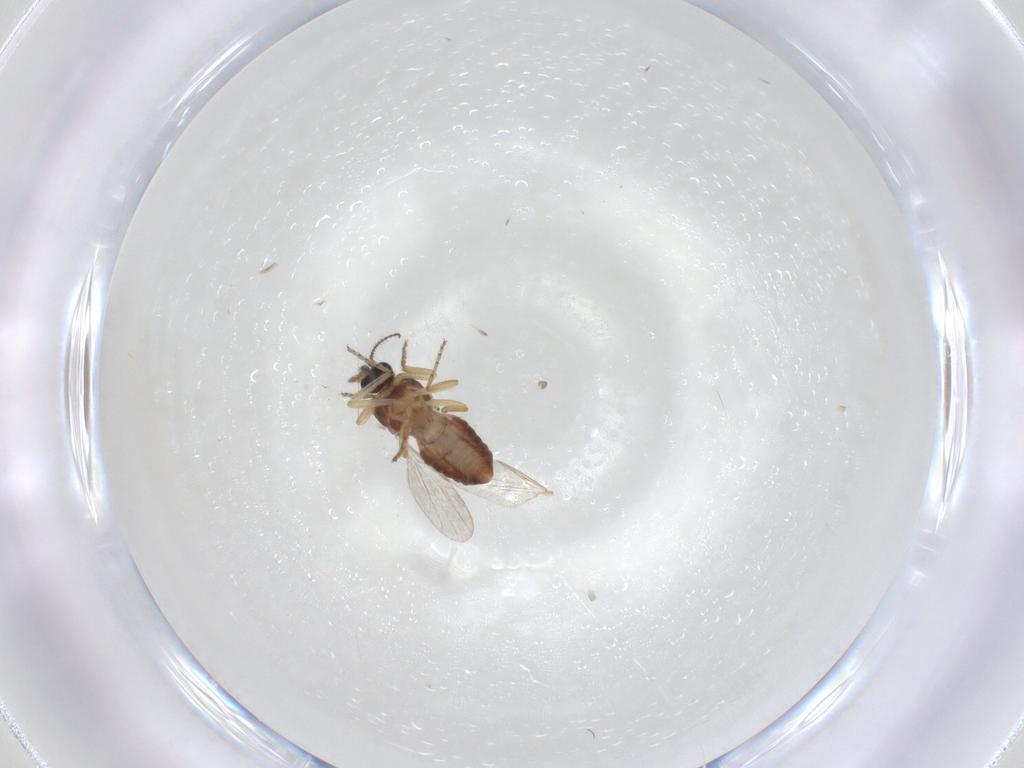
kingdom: Animalia
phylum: Arthropoda
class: Insecta
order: Diptera
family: Ceratopogonidae
